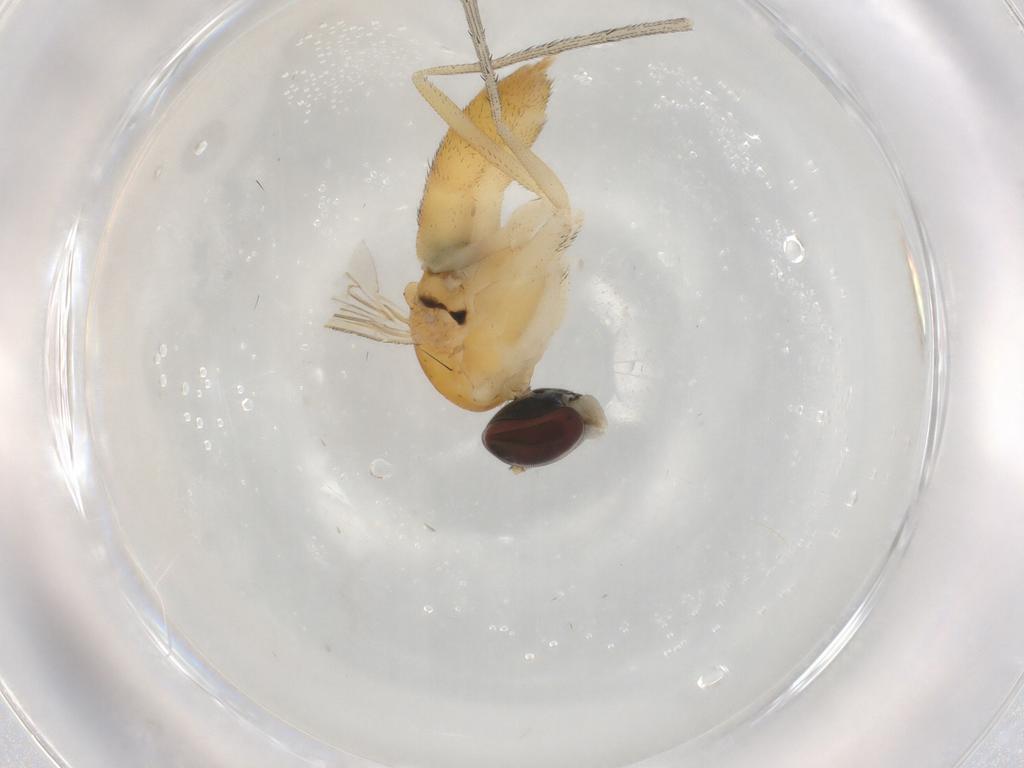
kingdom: Animalia
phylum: Arthropoda
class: Insecta
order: Diptera
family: Dolichopodidae
